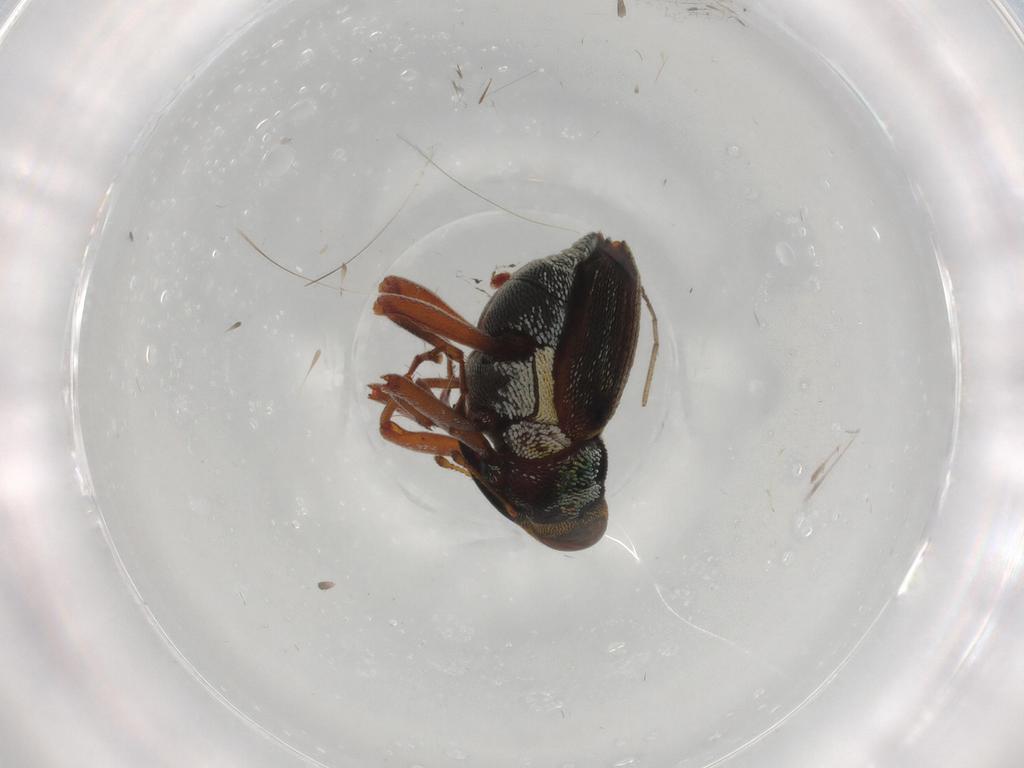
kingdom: Animalia
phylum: Arthropoda
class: Insecta
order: Coleoptera
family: Curculionidae
